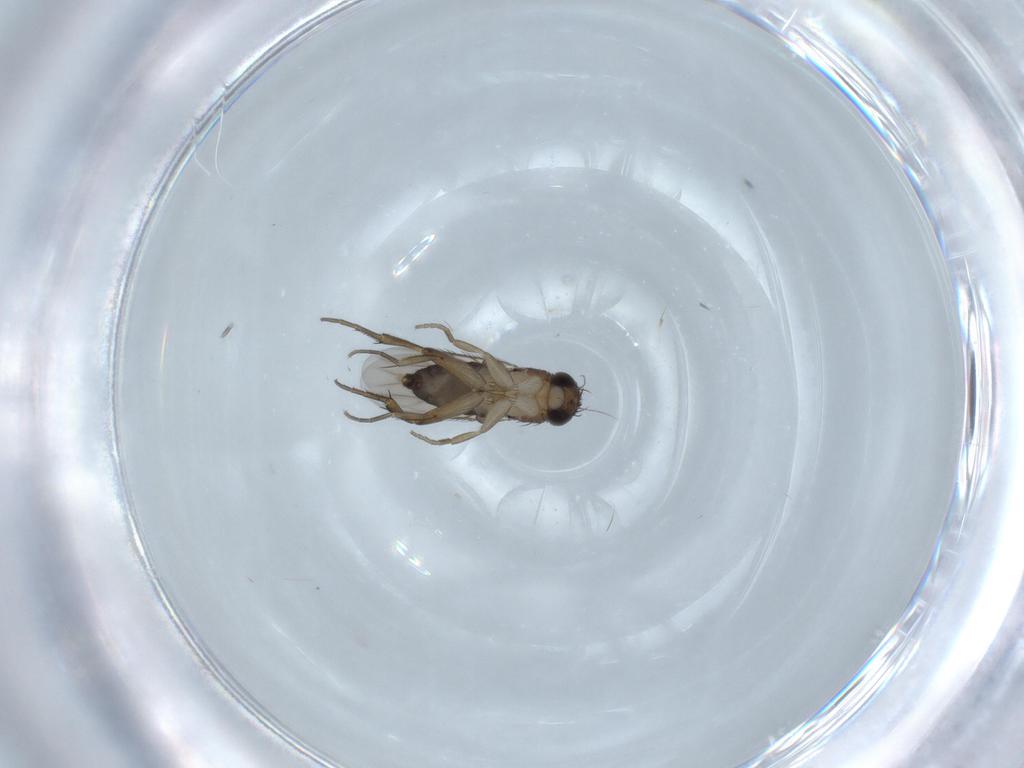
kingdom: Animalia
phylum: Arthropoda
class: Insecta
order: Diptera
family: Phoridae
